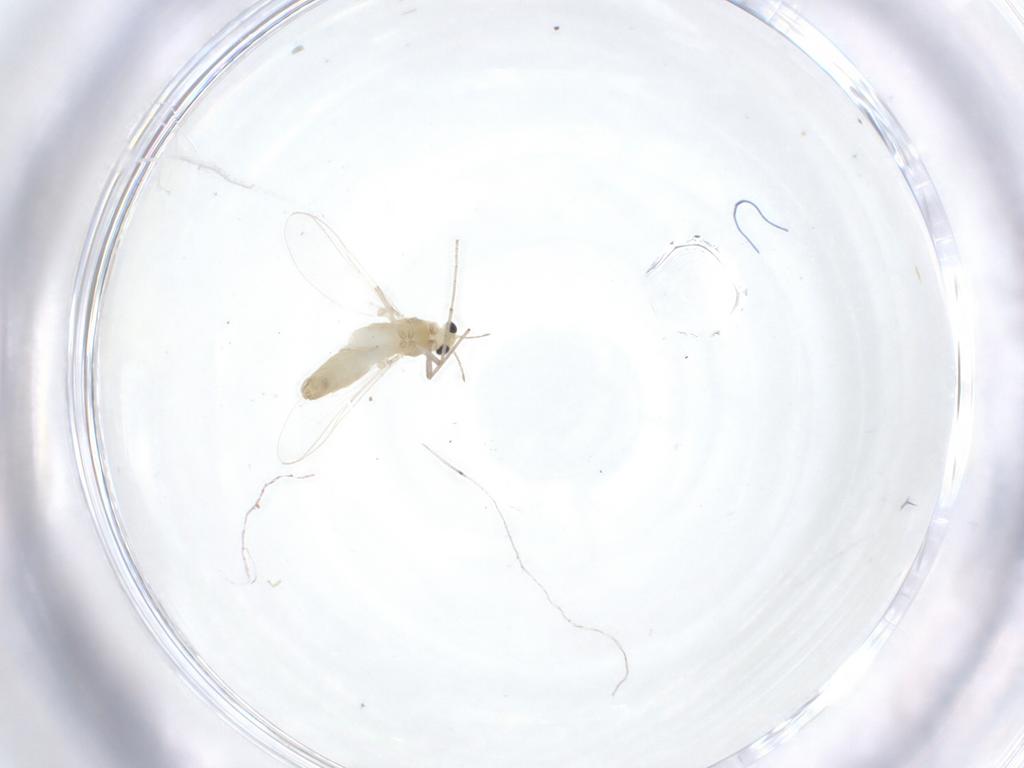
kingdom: Animalia
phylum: Arthropoda
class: Insecta
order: Diptera
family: Chironomidae
